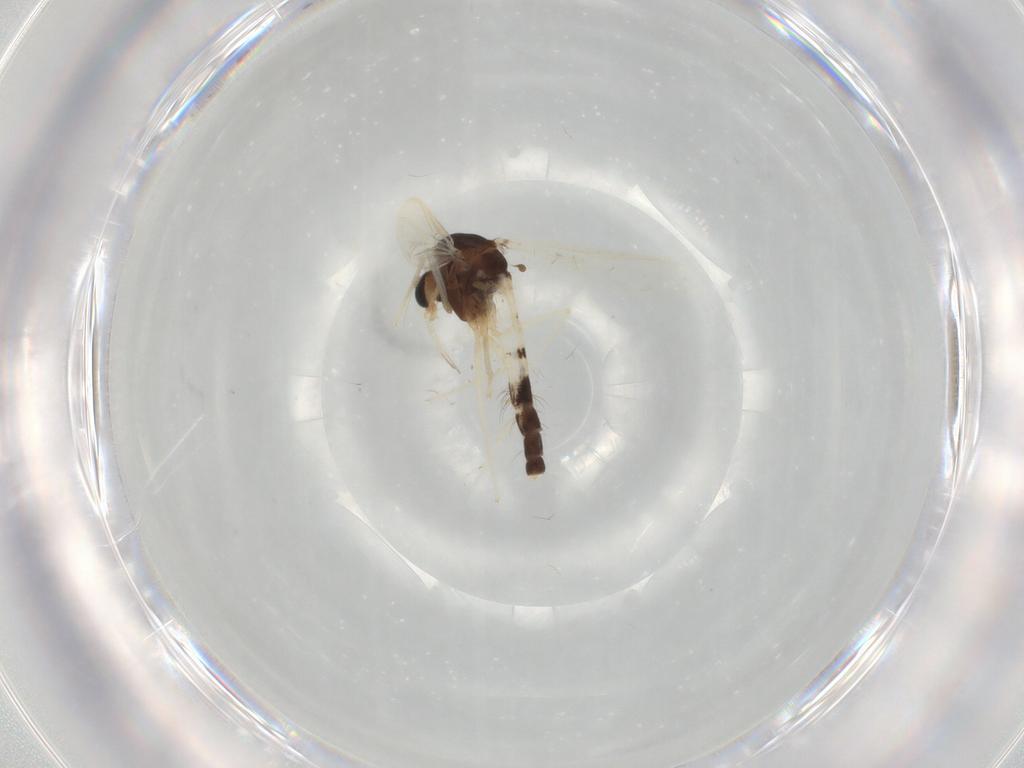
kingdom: Animalia
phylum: Arthropoda
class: Insecta
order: Diptera
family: Chironomidae
